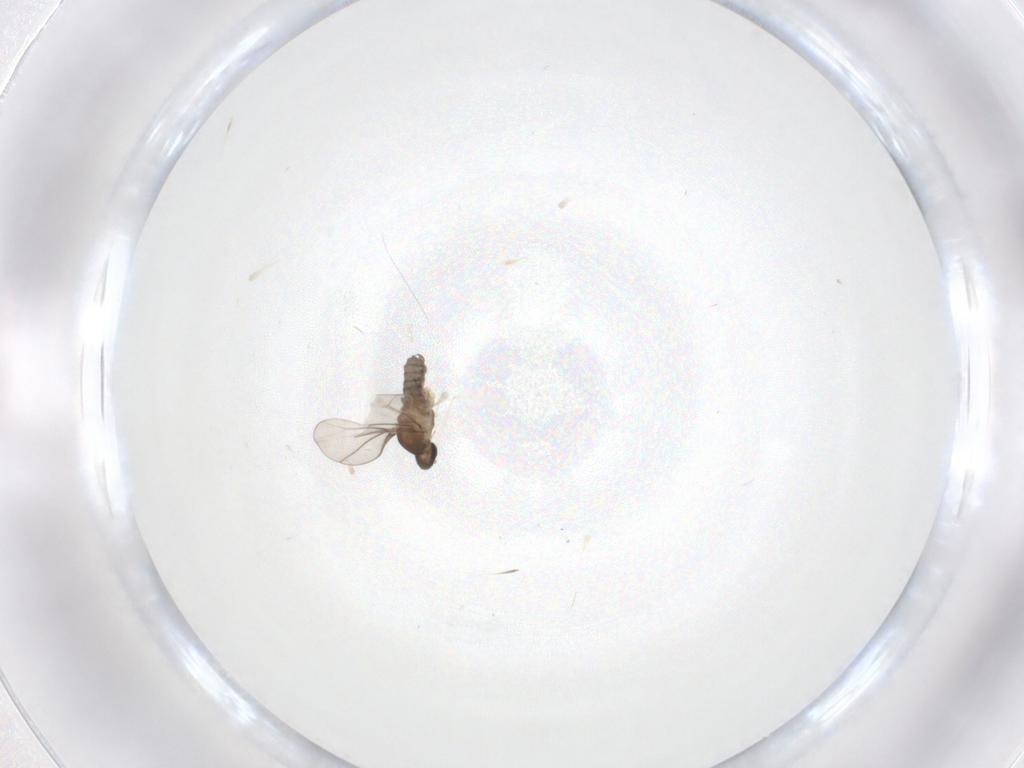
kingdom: Animalia
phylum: Arthropoda
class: Insecta
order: Diptera
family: Cecidomyiidae
